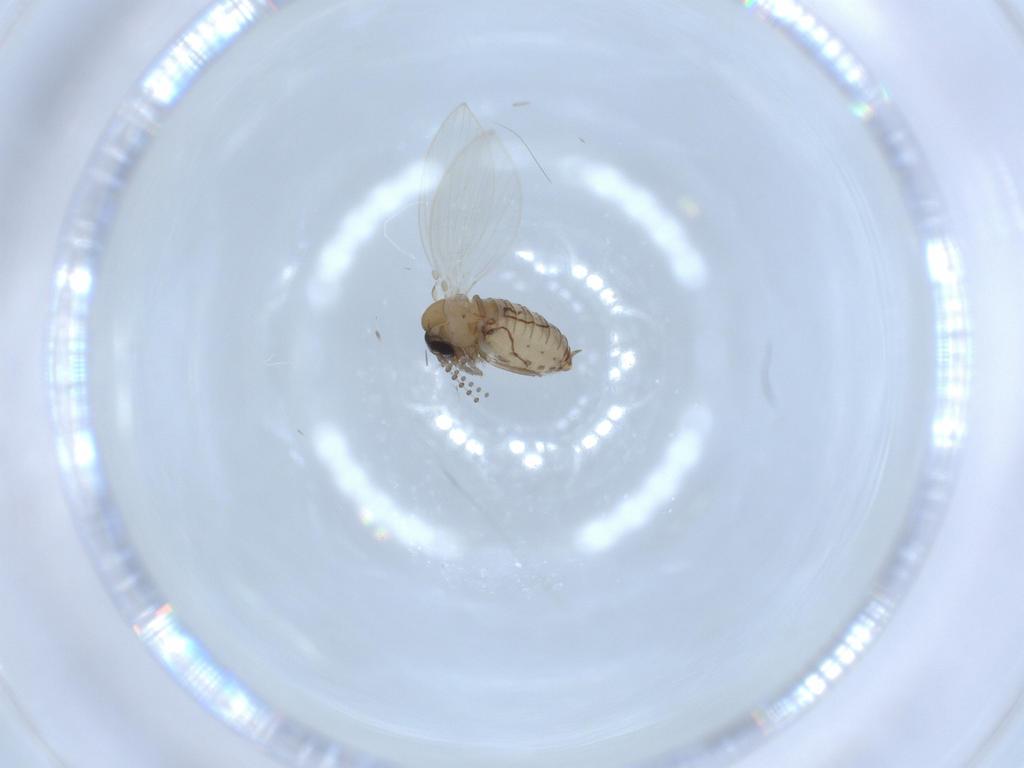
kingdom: Animalia
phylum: Arthropoda
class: Insecta
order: Diptera
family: Psychodidae
